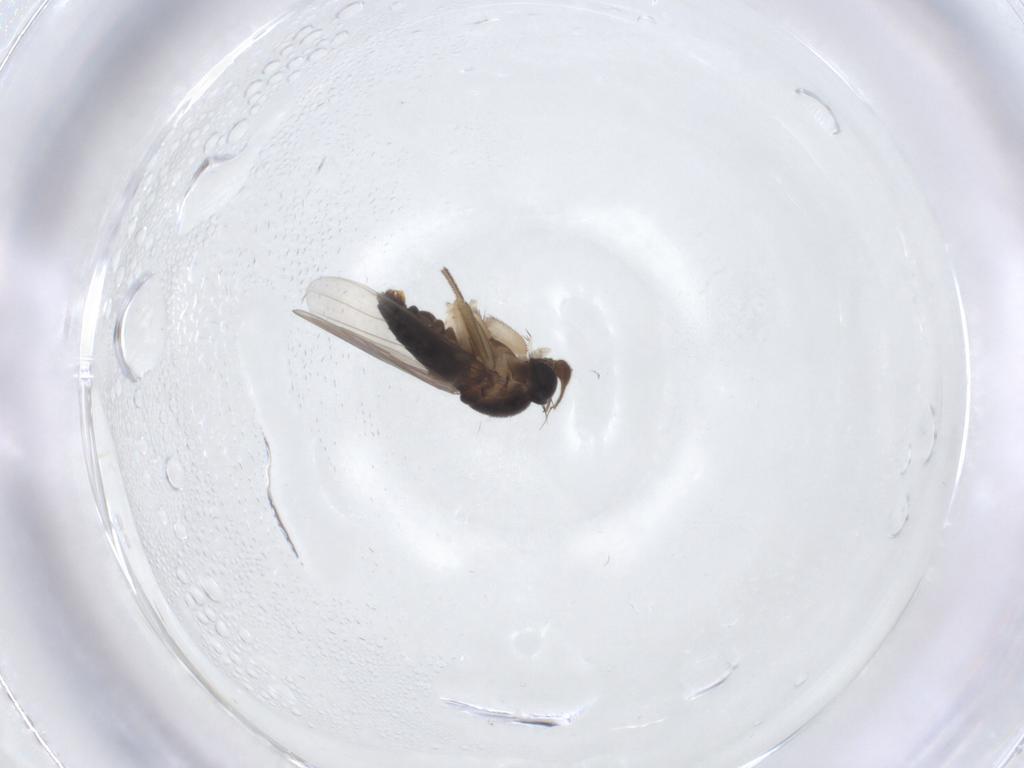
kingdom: Animalia
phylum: Arthropoda
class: Insecta
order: Diptera
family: Phoridae
